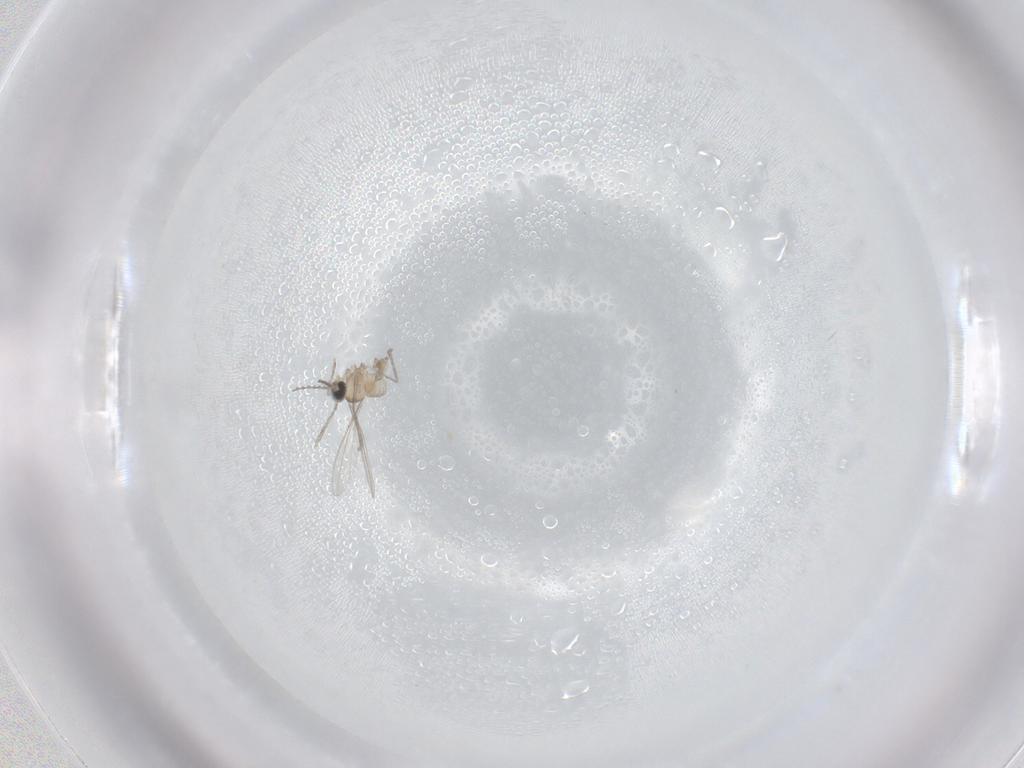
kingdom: Animalia
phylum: Arthropoda
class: Insecta
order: Diptera
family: Cecidomyiidae
